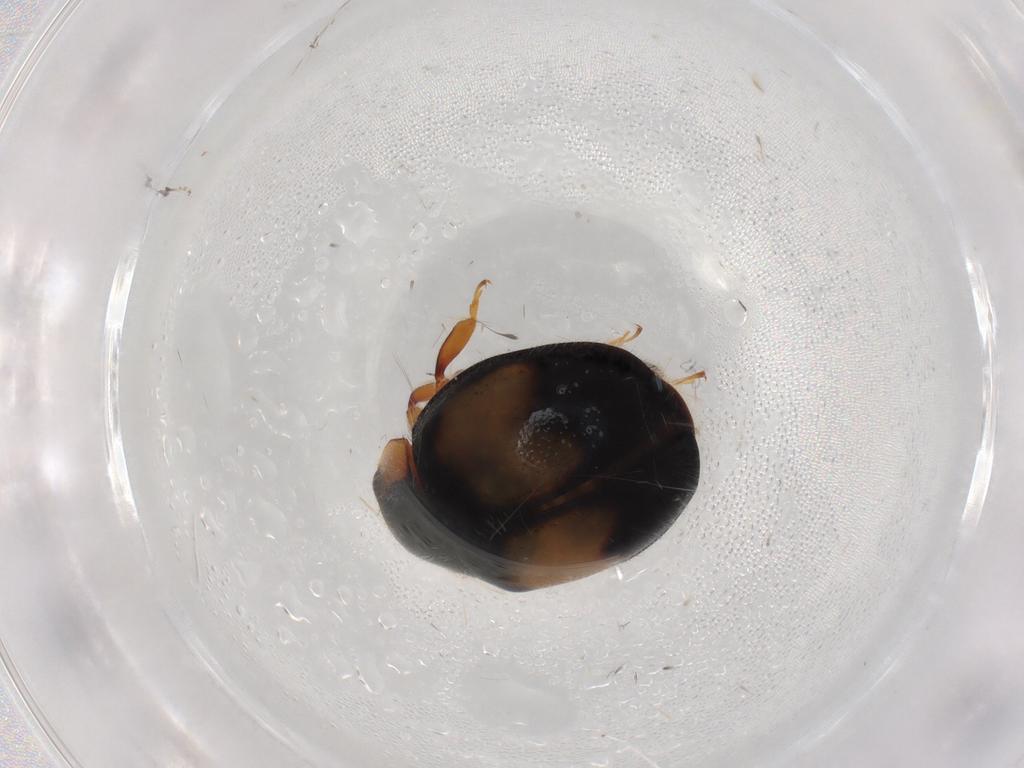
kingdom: Animalia
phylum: Arthropoda
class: Insecta
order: Coleoptera
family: Coccinellidae
